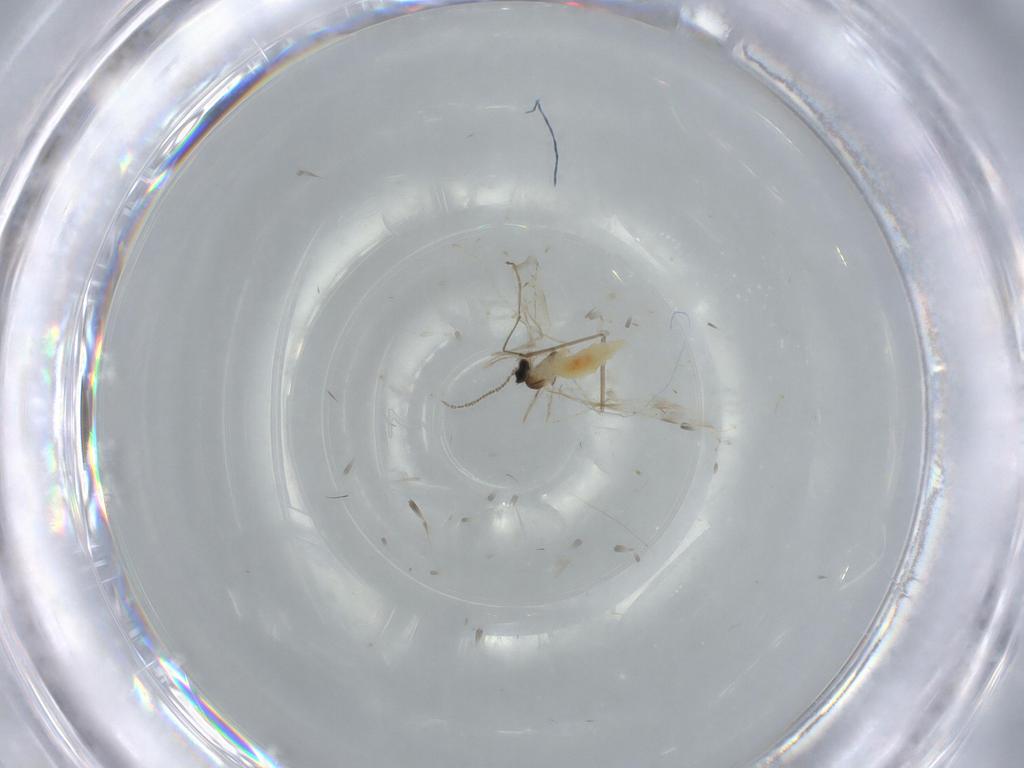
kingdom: Animalia
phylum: Arthropoda
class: Insecta
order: Diptera
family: Cecidomyiidae
